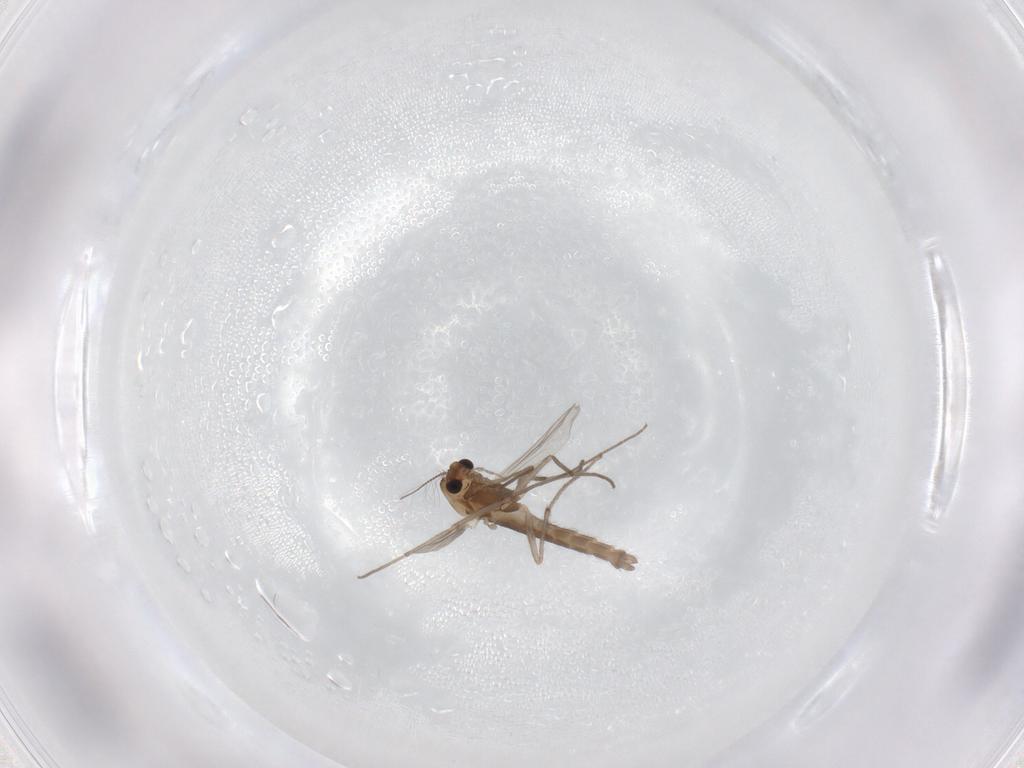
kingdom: Animalia
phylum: Arthropoda
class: Insecta
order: Diptera
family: Chironomidae
